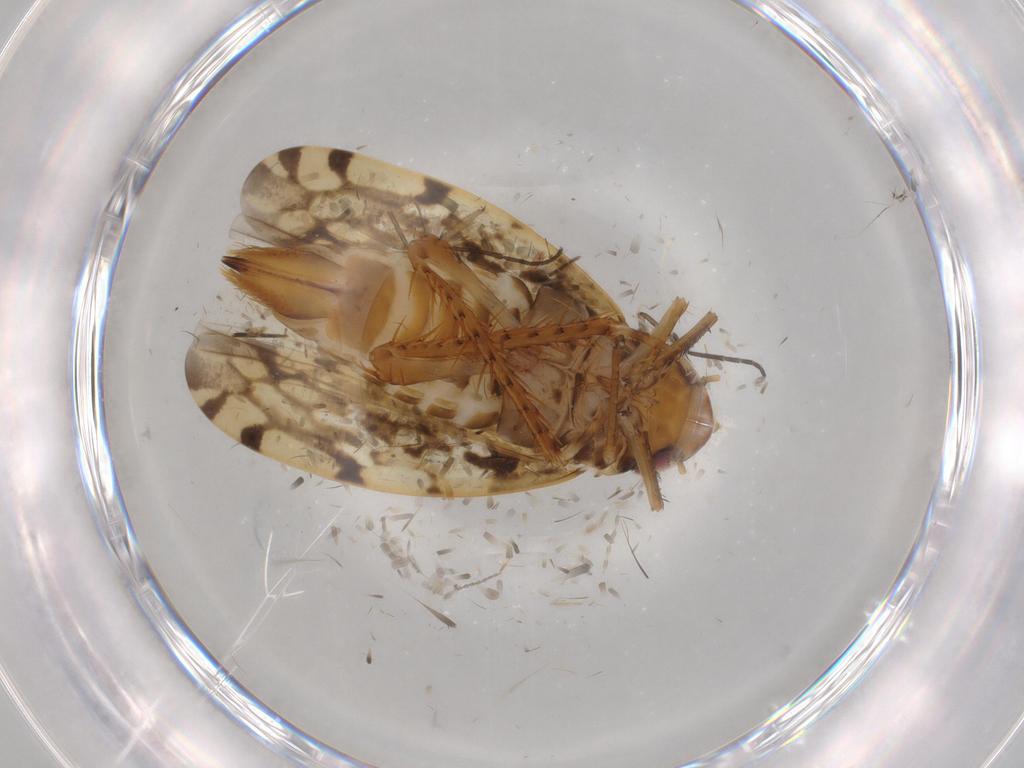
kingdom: Animalia
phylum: Arthropoda
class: Insecta
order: Hemiptera
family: Cicadellidae
